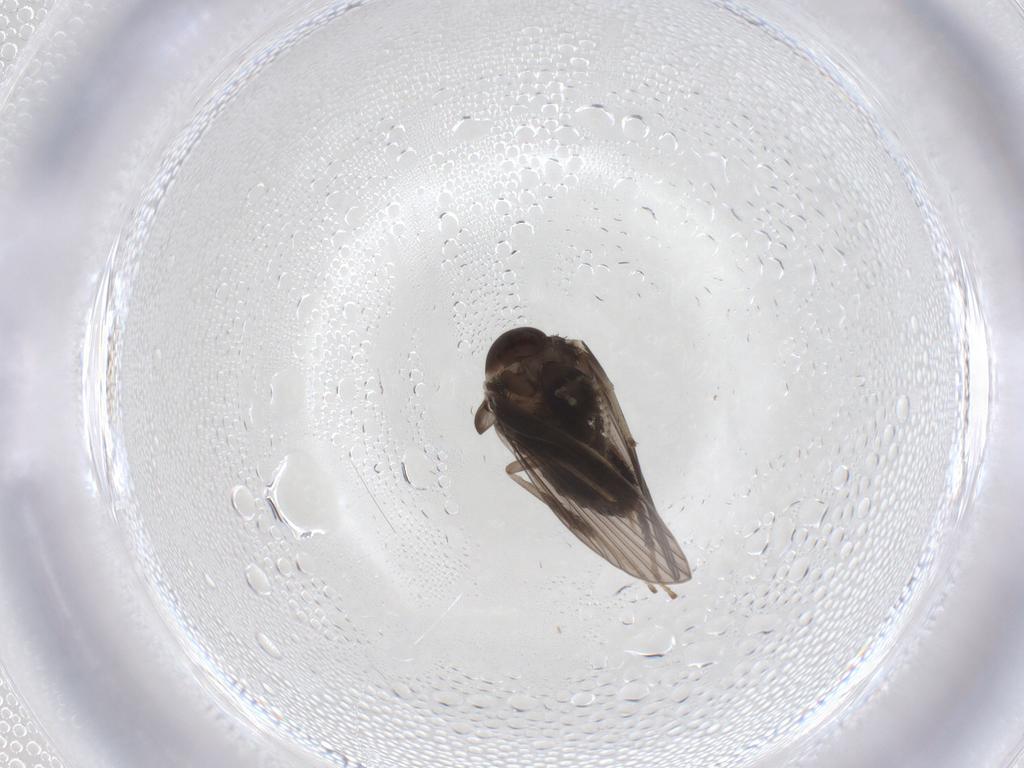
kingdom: Animalia
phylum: Arthropoda
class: Insecta
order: Diptera
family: Psychodidae
